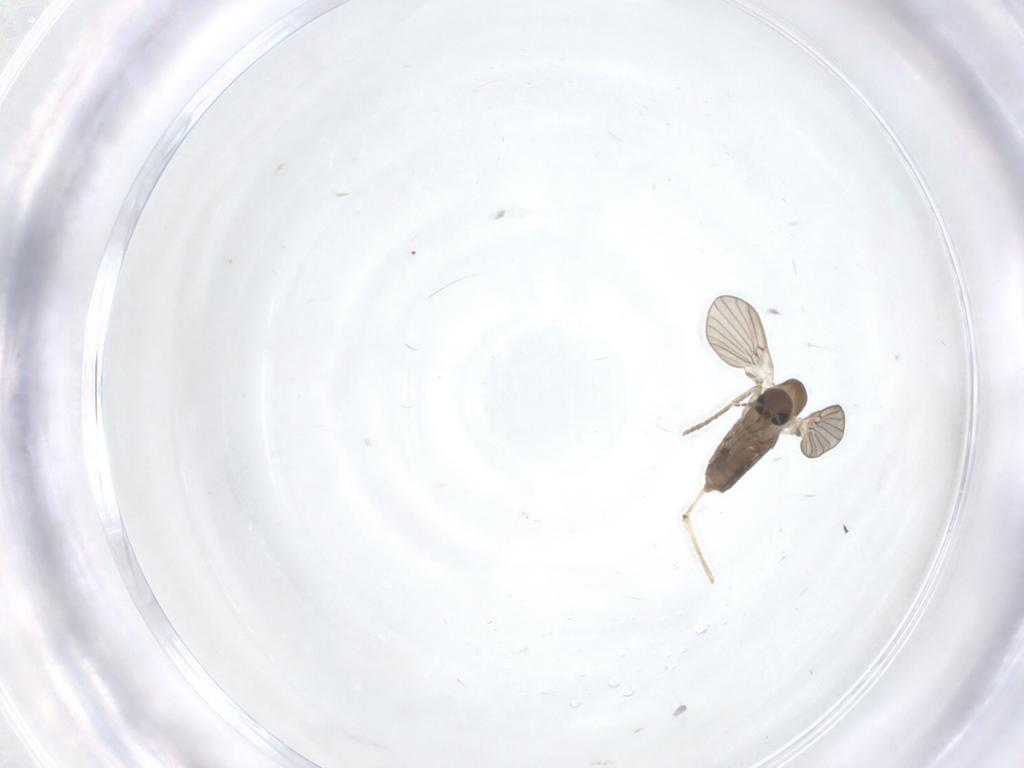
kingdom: Animalia
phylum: Arthropoda
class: Insecta
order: Diptera
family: Chironomidae
